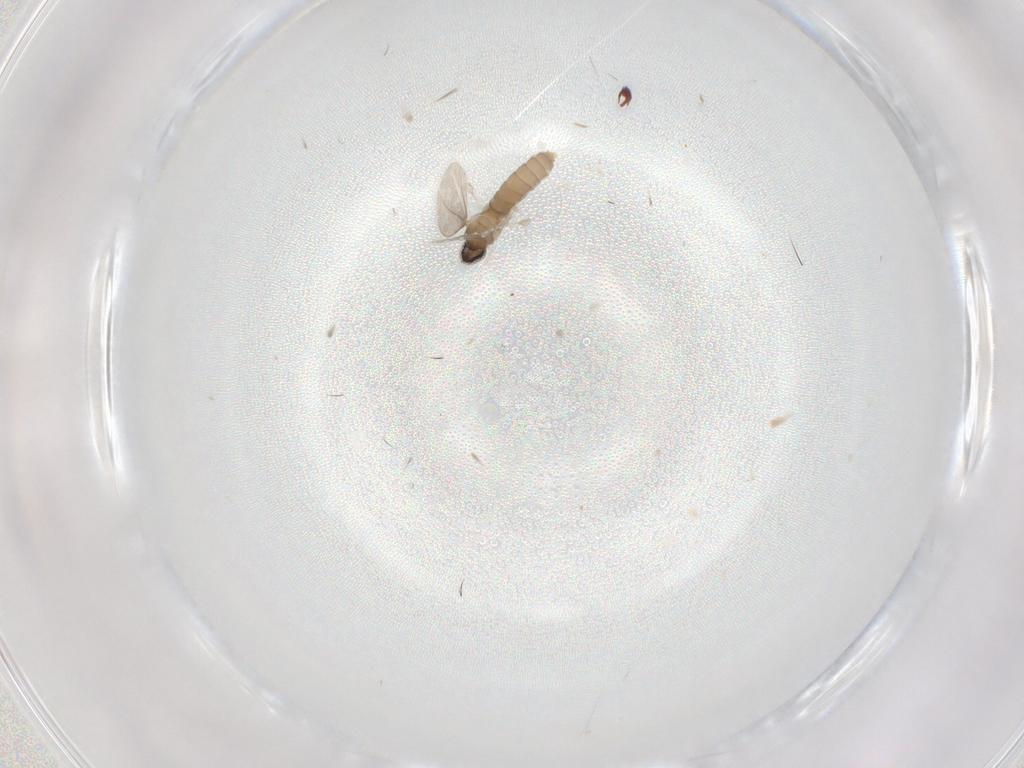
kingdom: Animalia
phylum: Arthropoda
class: Insecta
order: Diptera
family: Cecidomyiidae
